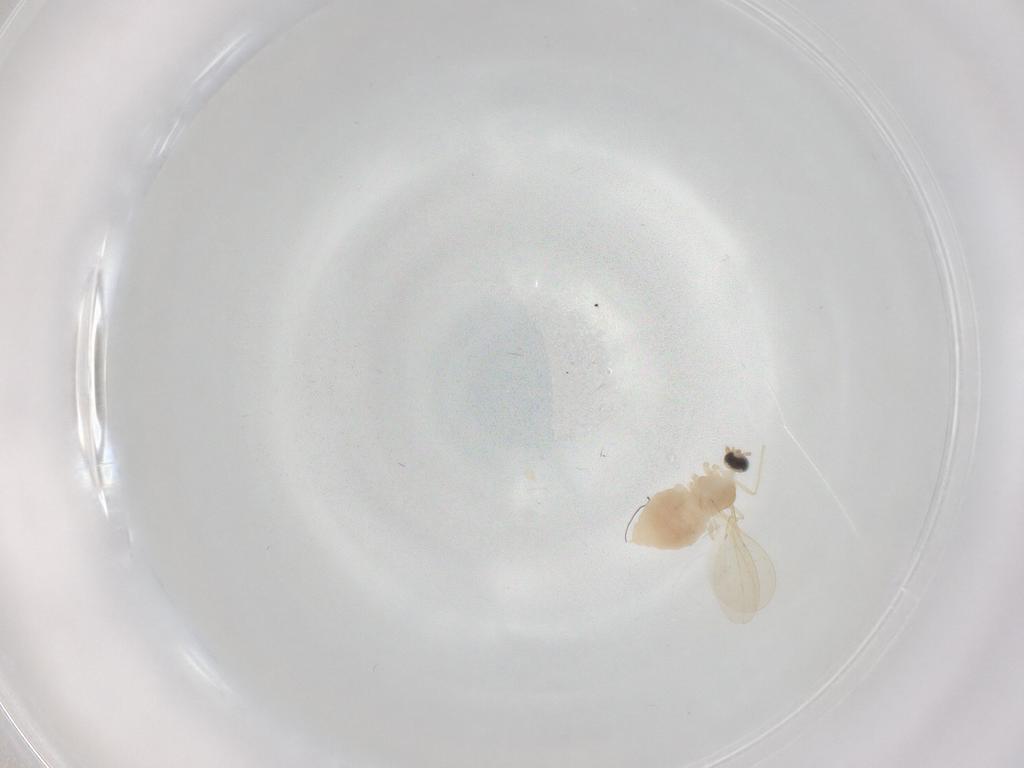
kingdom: Animalia
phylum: Arthropoda
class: Insecta
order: Diptera
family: Cecidomyiidae
